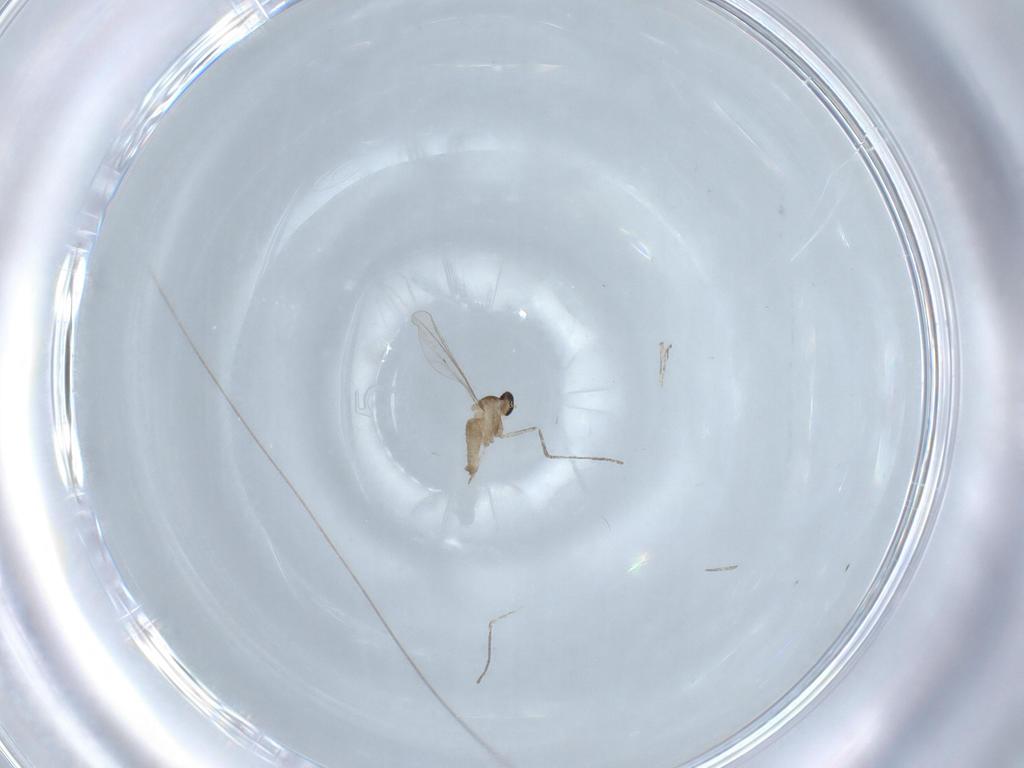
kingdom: Animalia
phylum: Arthropoda
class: Insecta
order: Diptera
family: Cecidomyiidae
